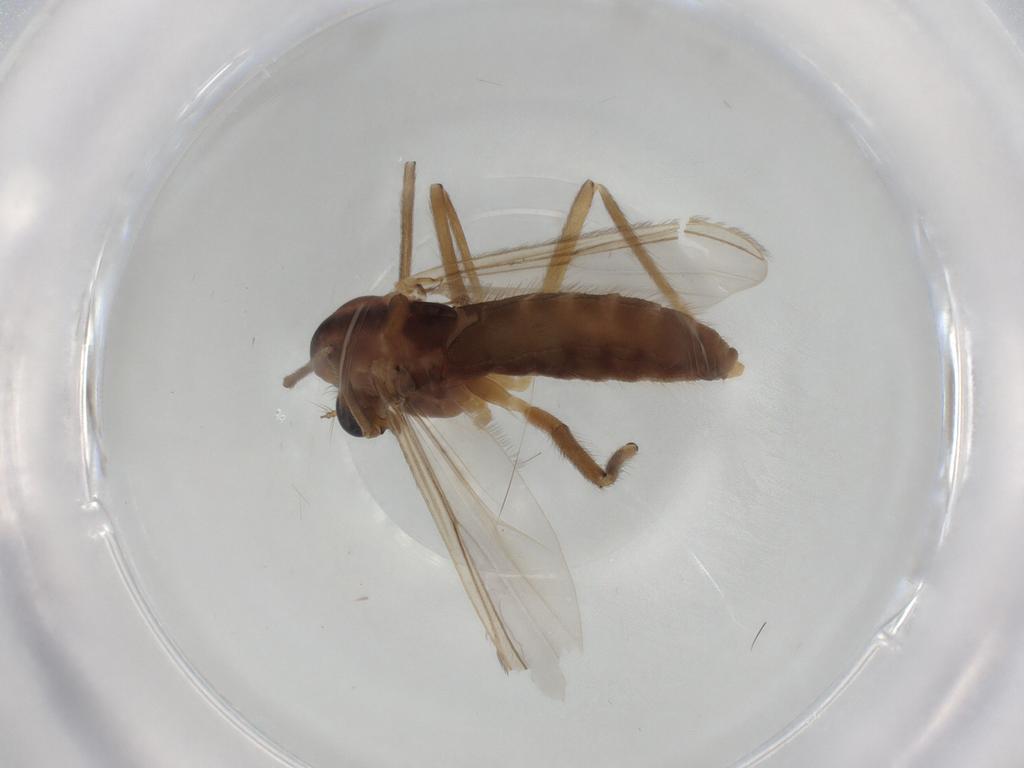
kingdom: Animalia
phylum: Arthropoda
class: Insecta
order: Diptera
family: Chironomidae
